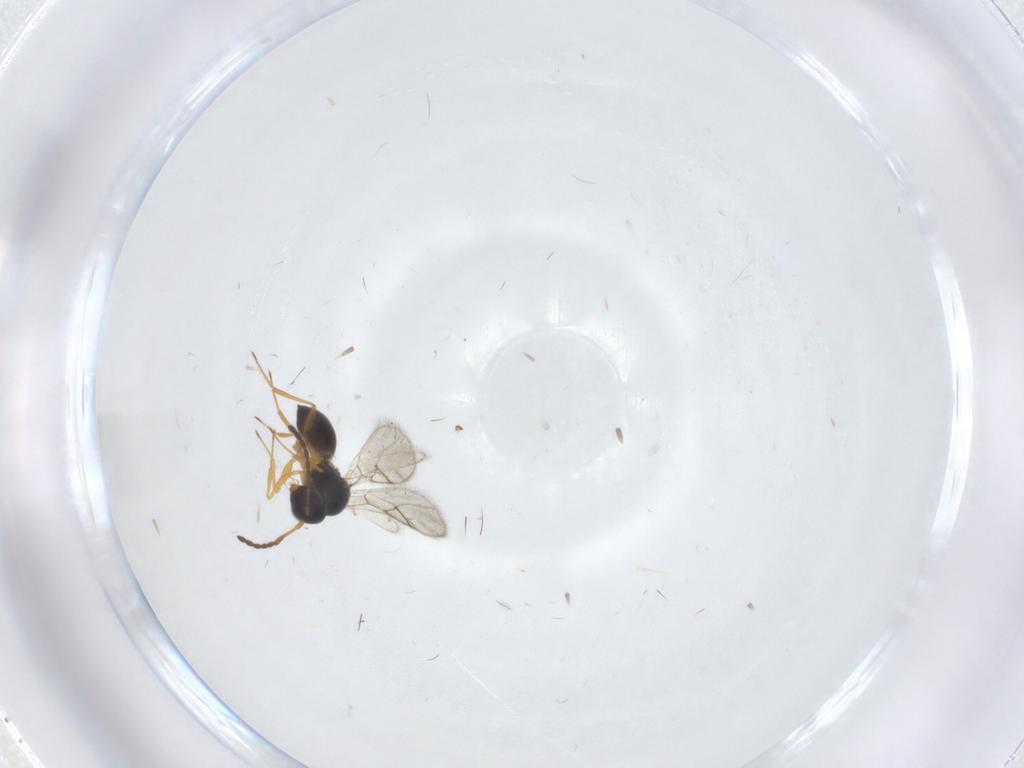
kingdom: Animalia
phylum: Arthropoda
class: Insecta
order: Hymenoptera
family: Figitidae
